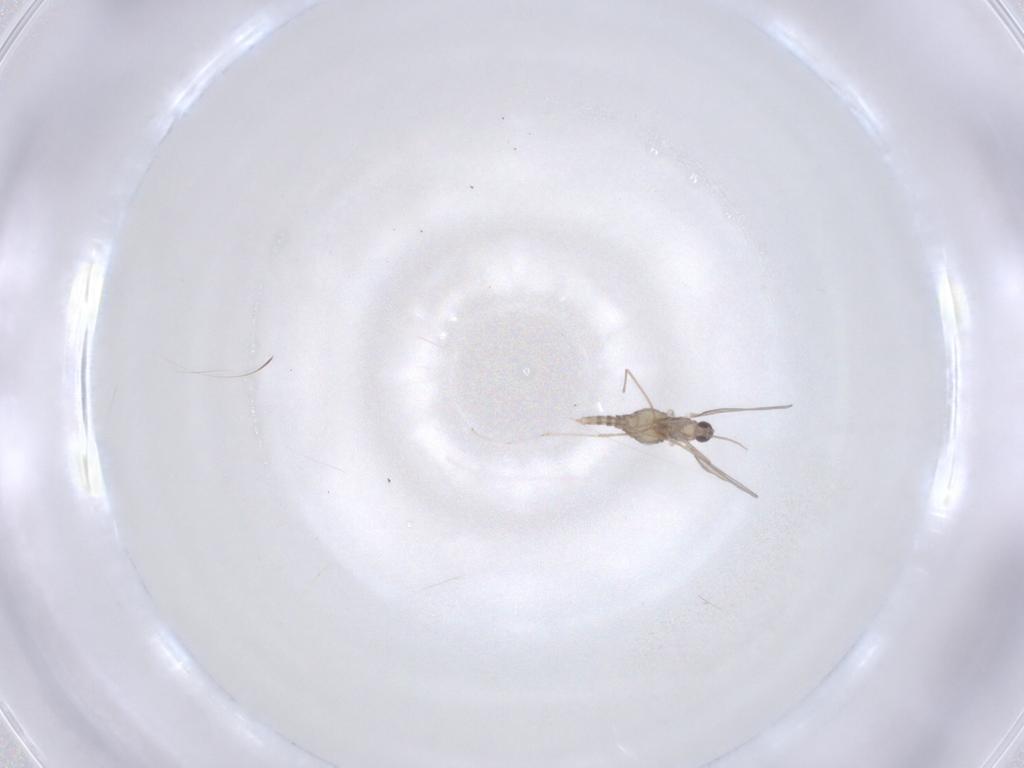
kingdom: Animalia
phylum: Arthropoda
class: Insecta
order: Diptera
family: Cecidomyiidae
